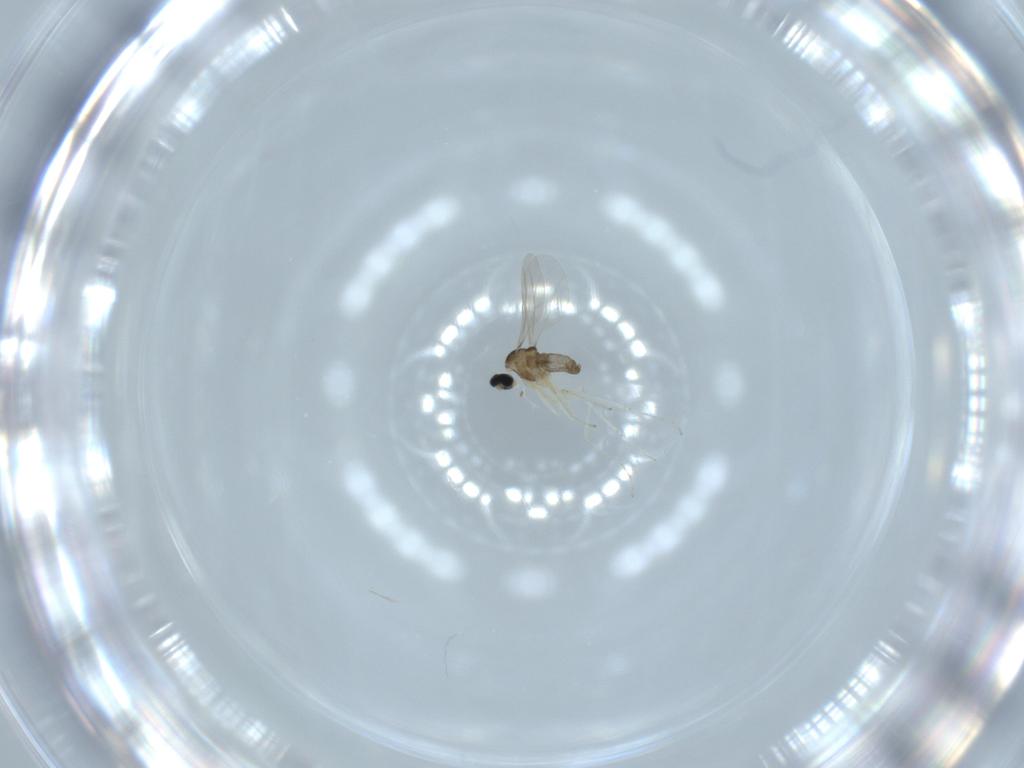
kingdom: Animalia
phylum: Arthropoda
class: Insecta
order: Diptera
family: Cecidomyiidae
